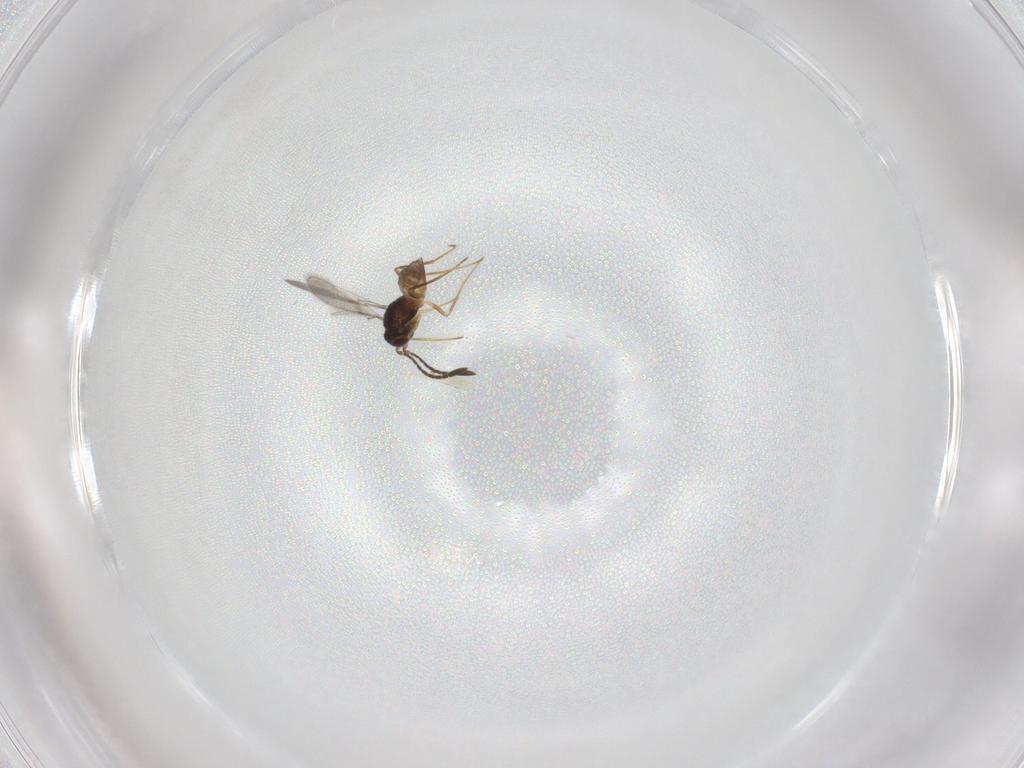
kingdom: Animalia
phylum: Arthropoda
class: Insecta
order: Hymenoptera
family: Mymaridae
